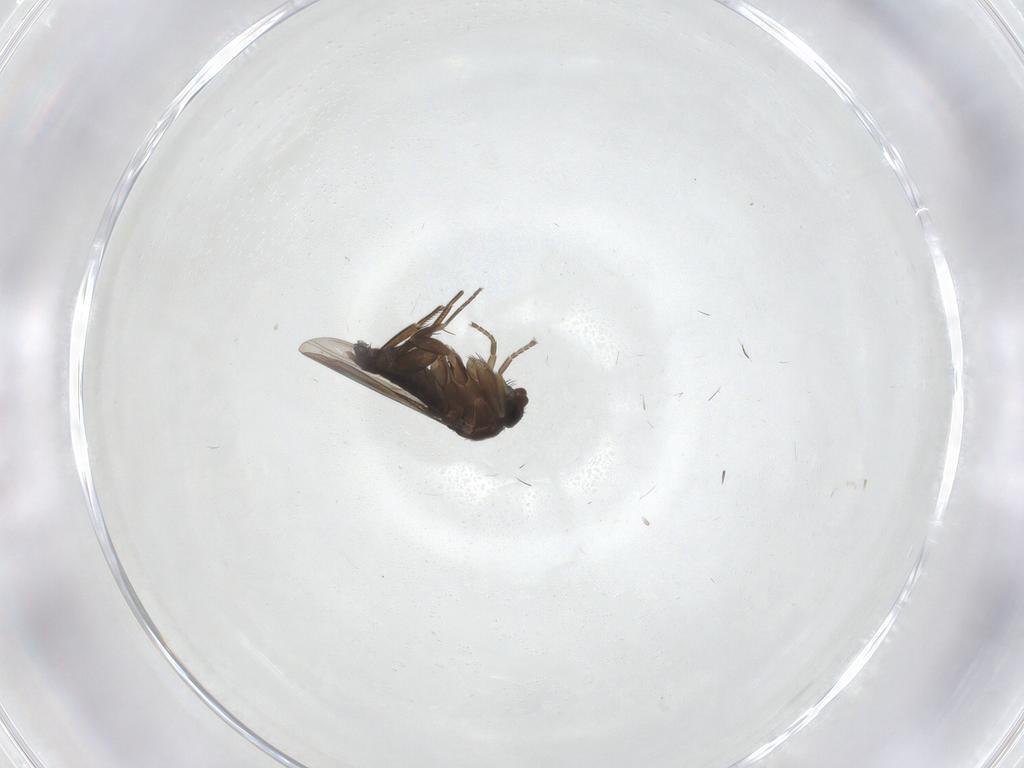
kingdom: Animalia
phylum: Arthropoda
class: Insecta
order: Diptera
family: Phoridae
